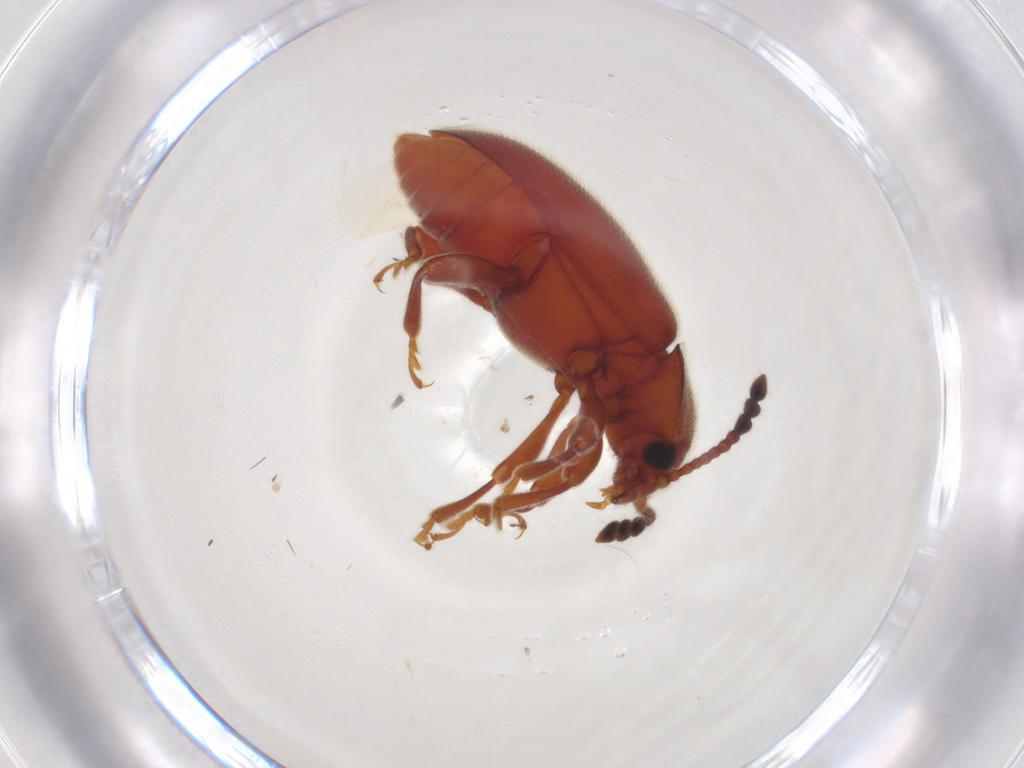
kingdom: Animalia
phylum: Arthropoda
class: Insecta
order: Coleoptera
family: Endomychidae
